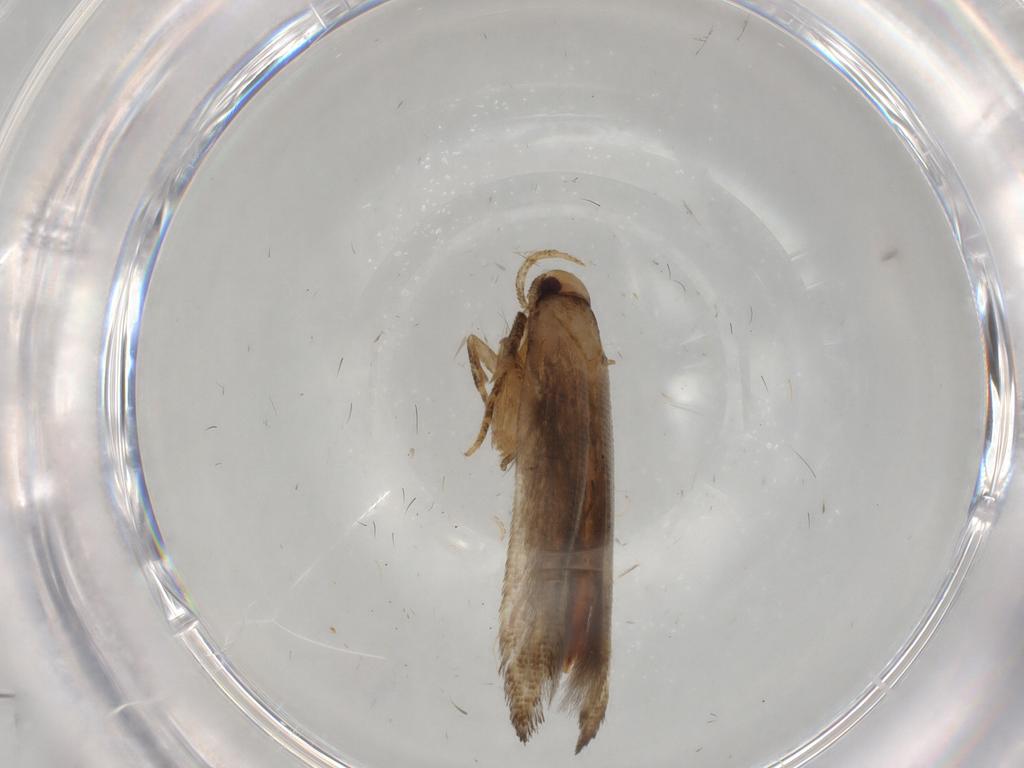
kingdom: Animalia
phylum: Arthropoda
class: Insecta
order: Lepidoptera
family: Cosmopterigidae
